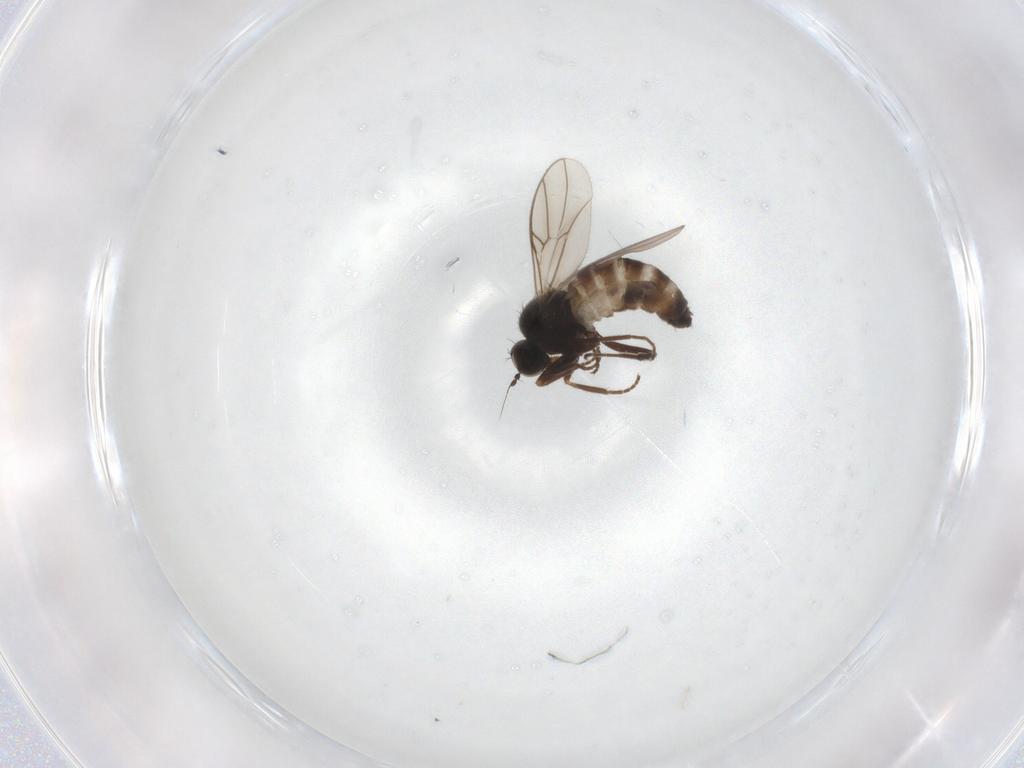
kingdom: Animalia
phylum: Arthropoda
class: Insecta
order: Diptera
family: Hybotidae
